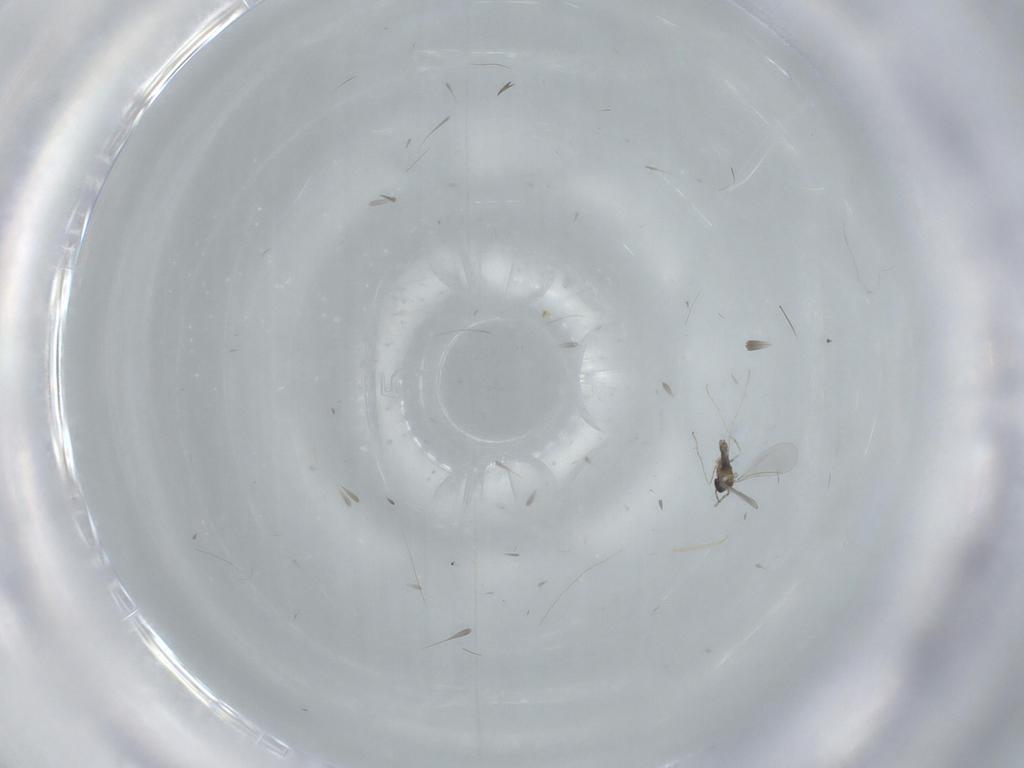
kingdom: Animalia
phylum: Arthropoda
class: Insecta
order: Diptera
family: Cecidomyiidae
